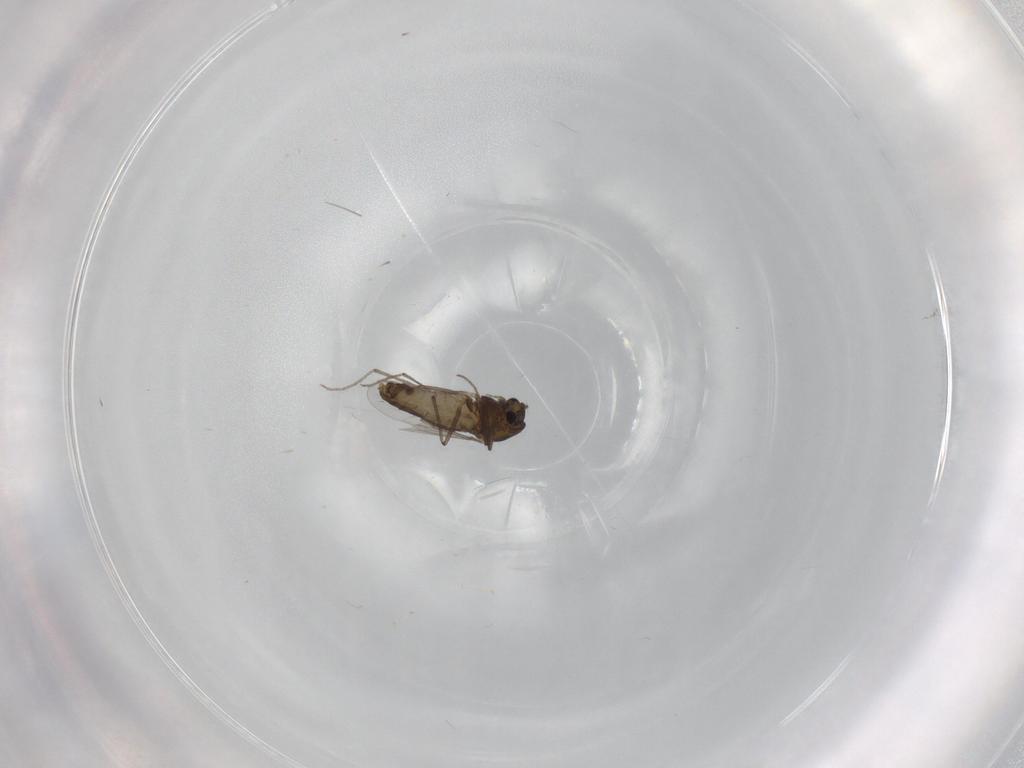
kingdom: Animalia
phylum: Arthropoda
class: Insecta
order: Diptera
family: Chironomidae
